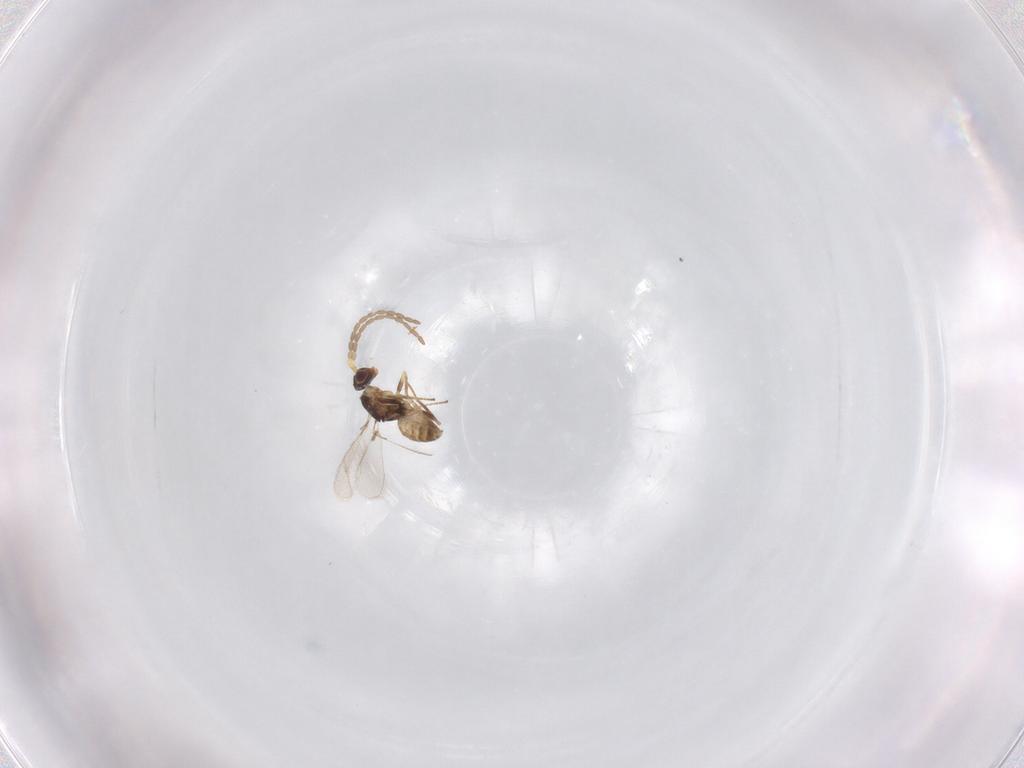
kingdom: Animalia
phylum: Arthropoda
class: Insecta
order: Hymenoptera
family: Mymaridae
